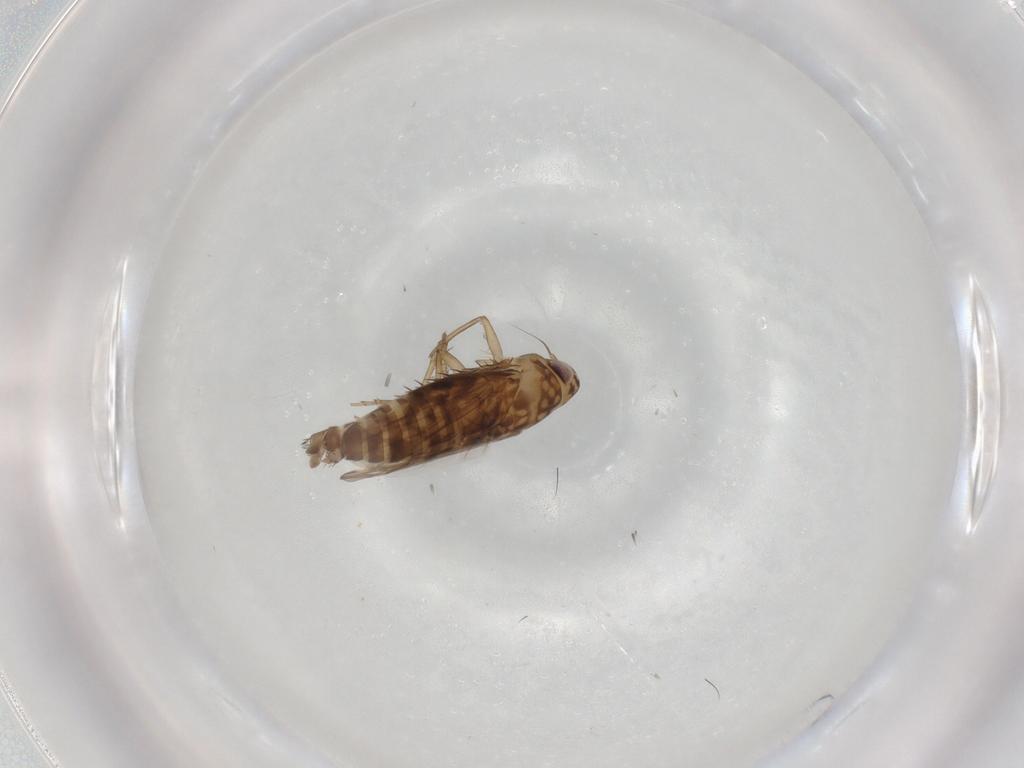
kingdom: Animalia
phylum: Arthropoda
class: Insecta
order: Hemiptera
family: Cicadellidae
